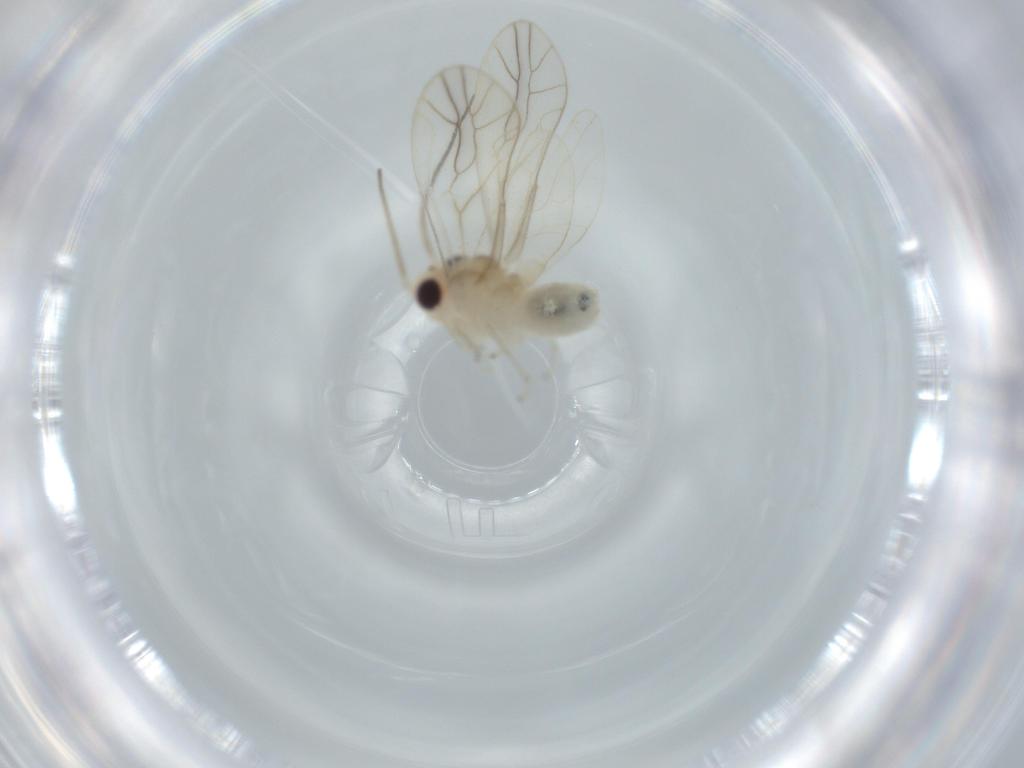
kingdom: Animalia
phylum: Arthropoda
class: Insecta
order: Psocodea
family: Caeciliusidae
